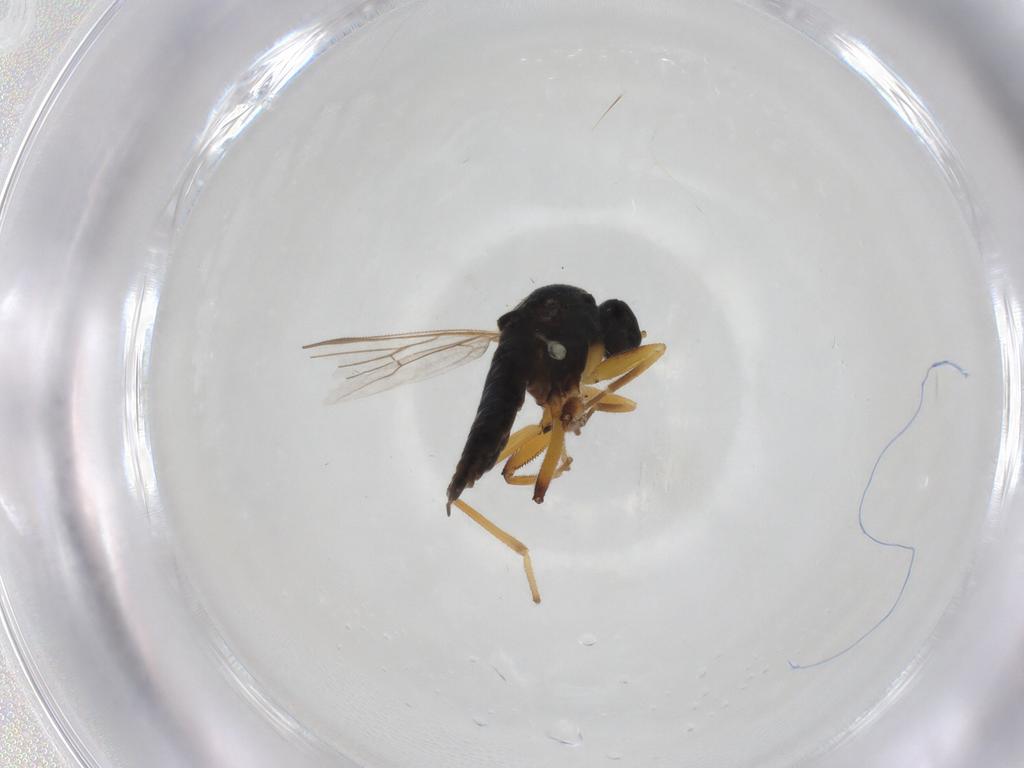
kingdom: Animalia
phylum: Arthropoda
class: Insecta
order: Diptera
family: Hybotidae
